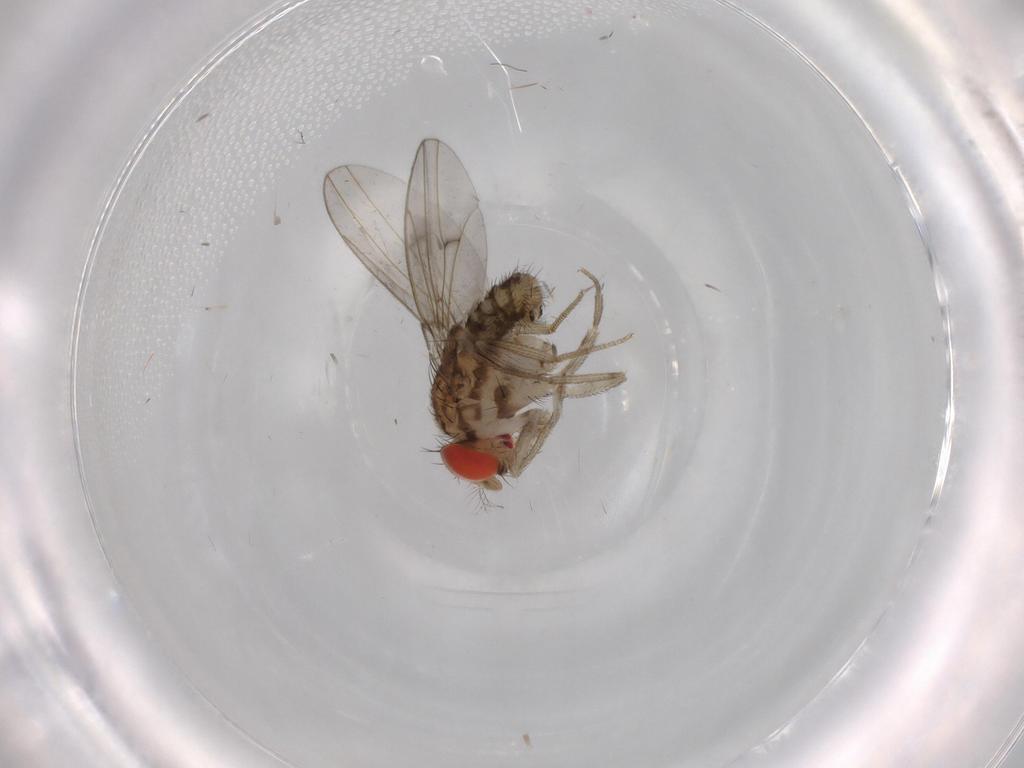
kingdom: Animalia
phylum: Arthropoda
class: Insecta
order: Diptera
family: Drosophilidae
